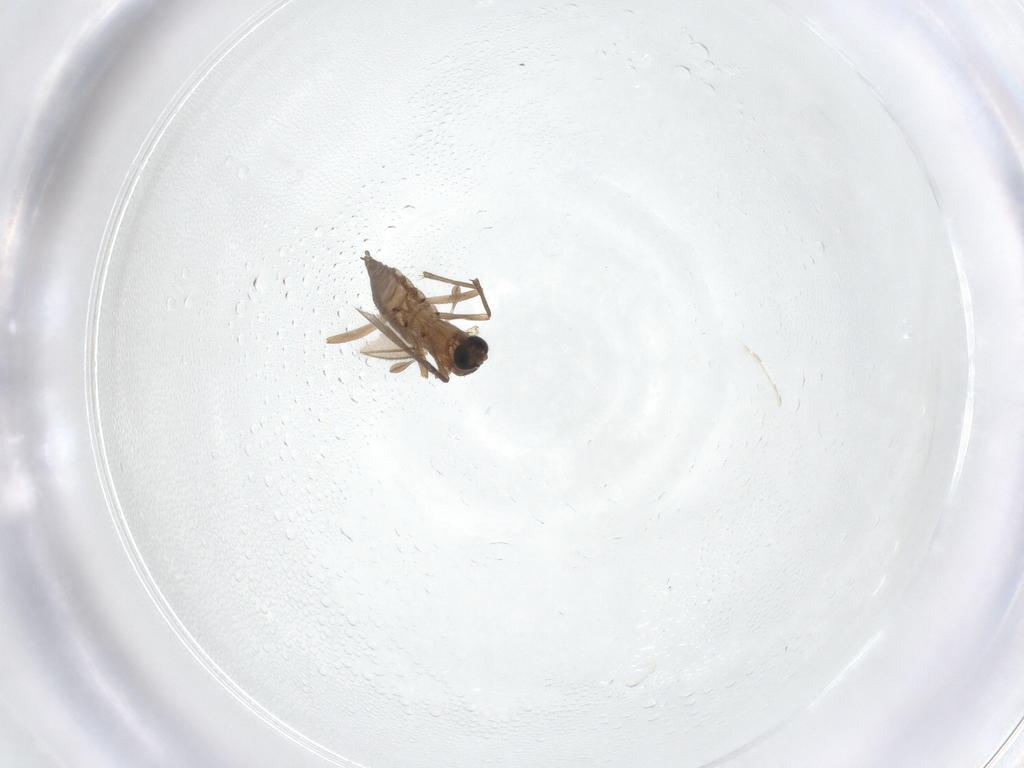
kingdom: Animalia
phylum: Arthropoda
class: Insecta
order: Diptera
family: Sciaridae
